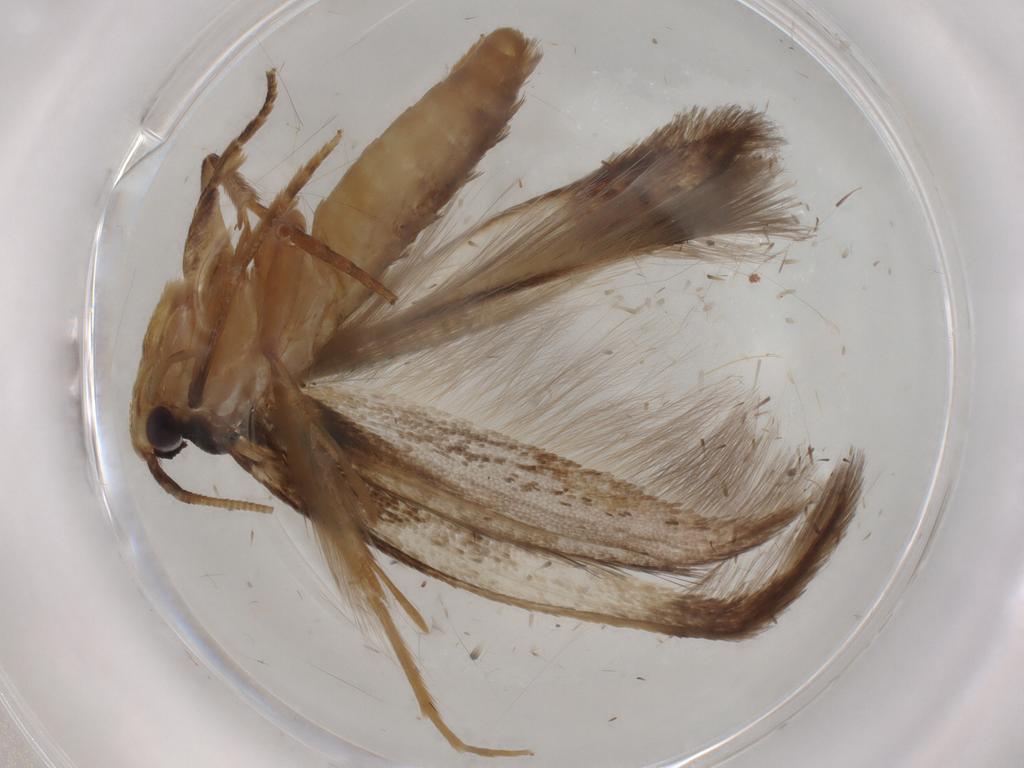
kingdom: Animalia
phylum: Arthropoda
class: Insecta
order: Lepidoptera
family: Tineidae
